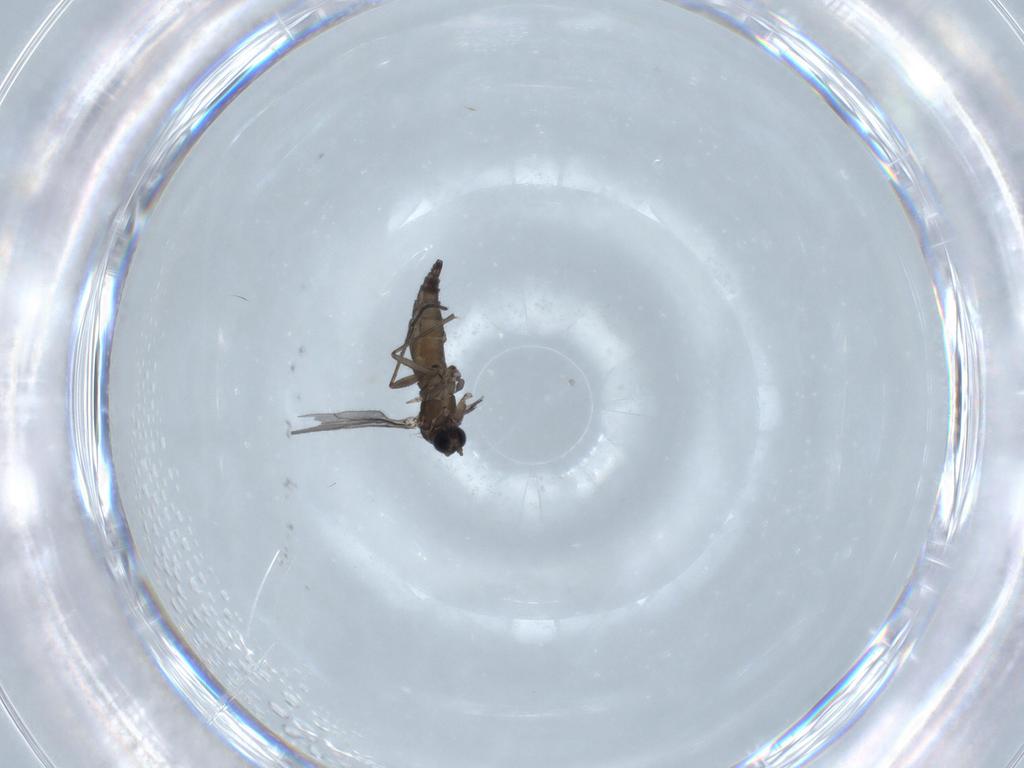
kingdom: Animalia
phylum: Arthropoda
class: Insecta
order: Diptera
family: Sciaridae
